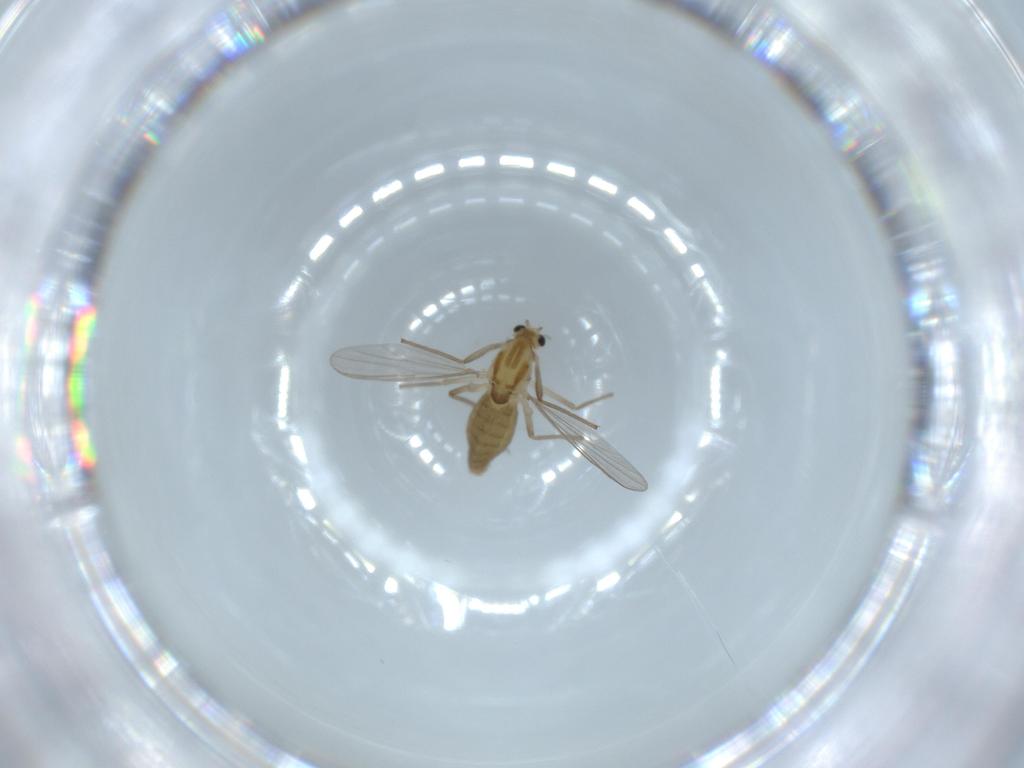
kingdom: Animalia
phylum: Arthropoda
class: Insecta
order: Diptera
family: Chironomidae
